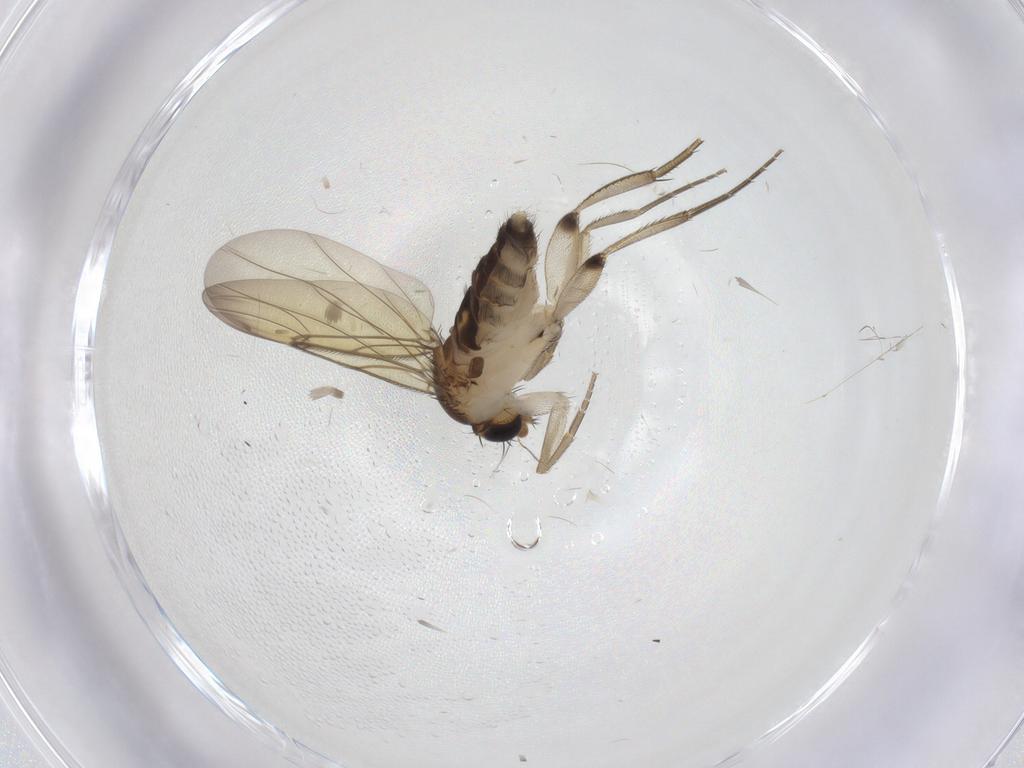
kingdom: Animalia
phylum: Arthropoda
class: Insecta
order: Diptera
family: Phoridae
